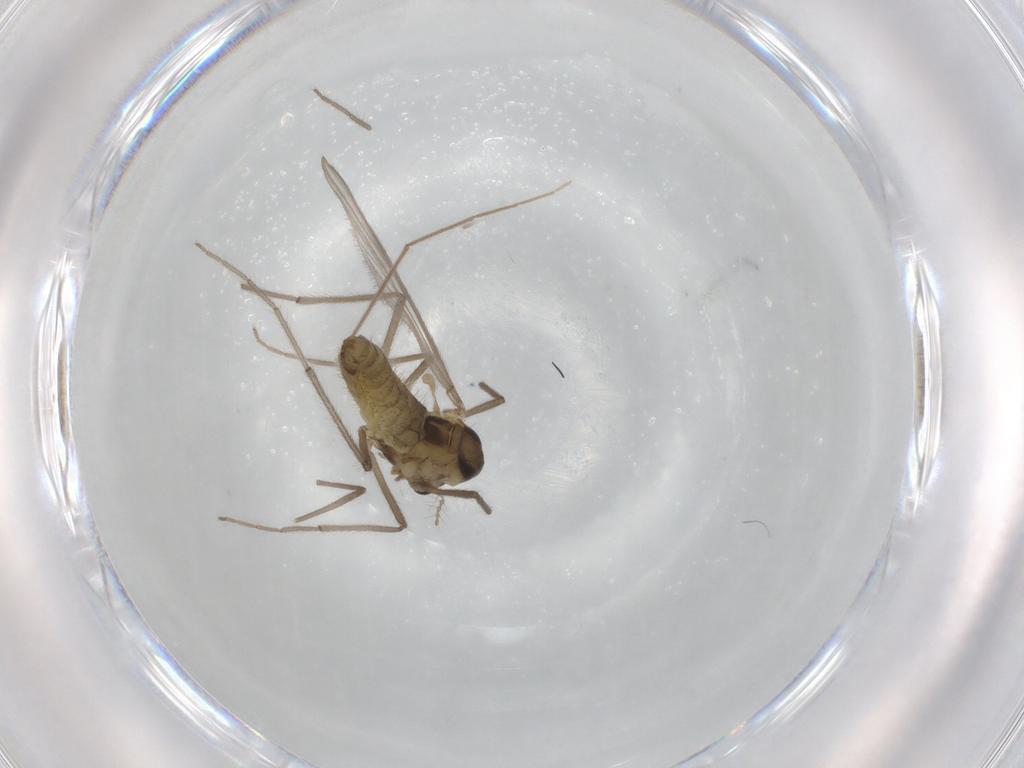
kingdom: Animalia
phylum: Arthropoda
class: Insecta
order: Diptera
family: Chironomidae
